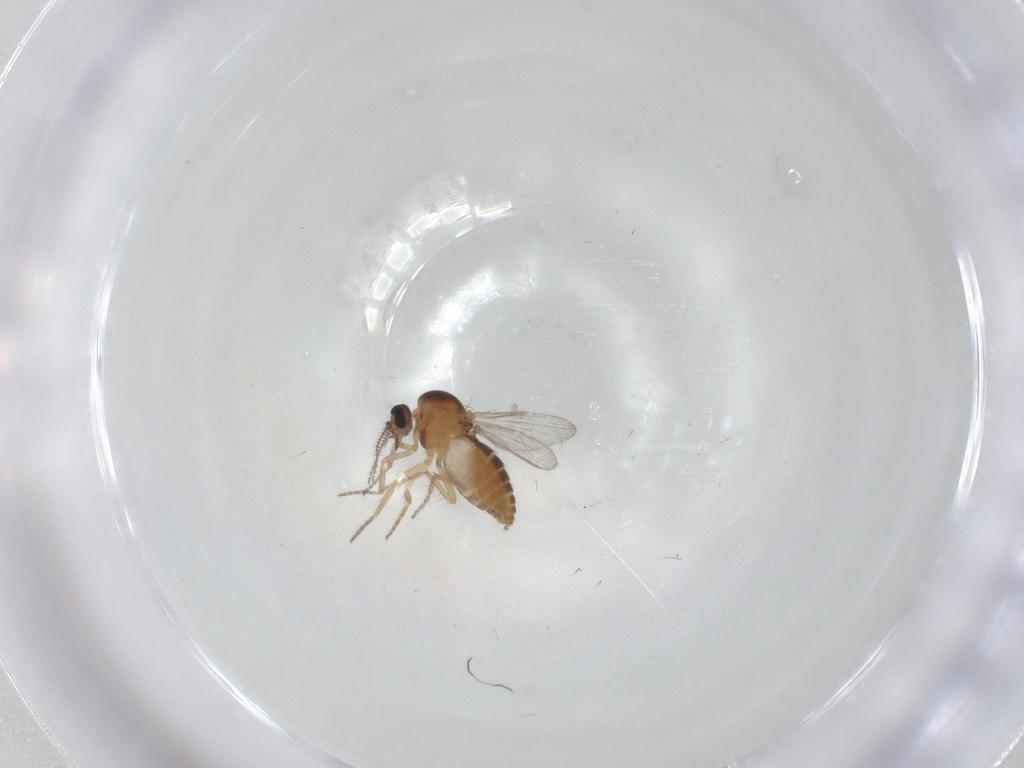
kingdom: Animalia
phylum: Arthropoda
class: Insecta
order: Diptera
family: Ceratopogonidae
